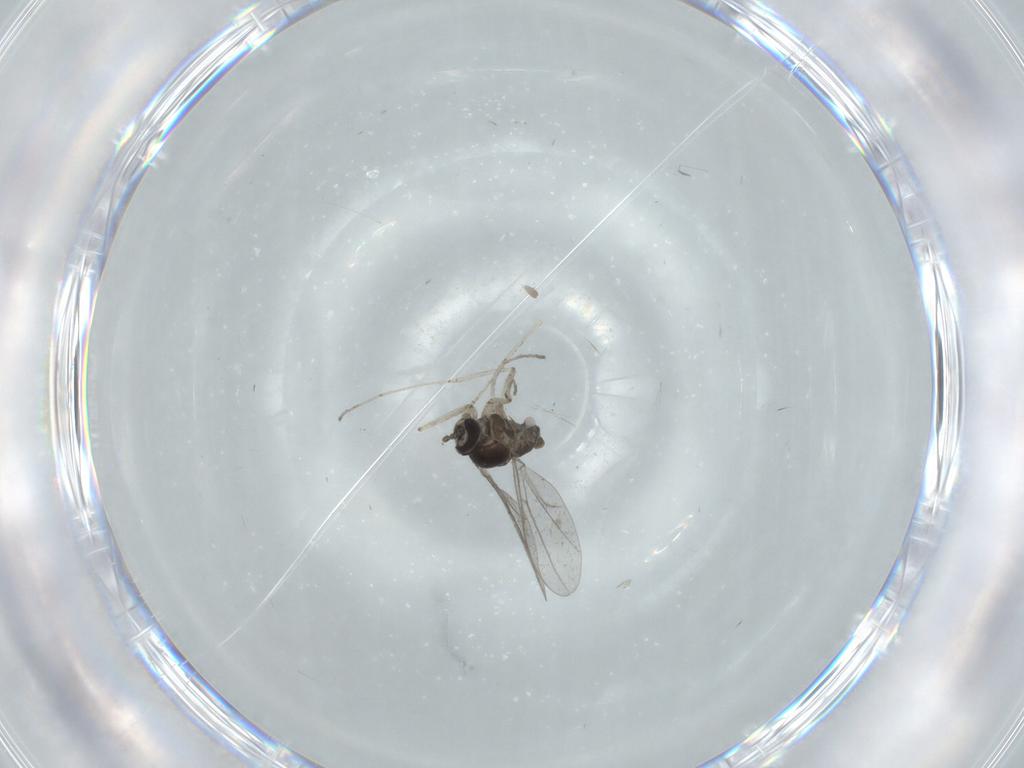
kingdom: Animalia
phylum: Arthropoda
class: Insecta
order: Diptera
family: Cecidomyiidae
